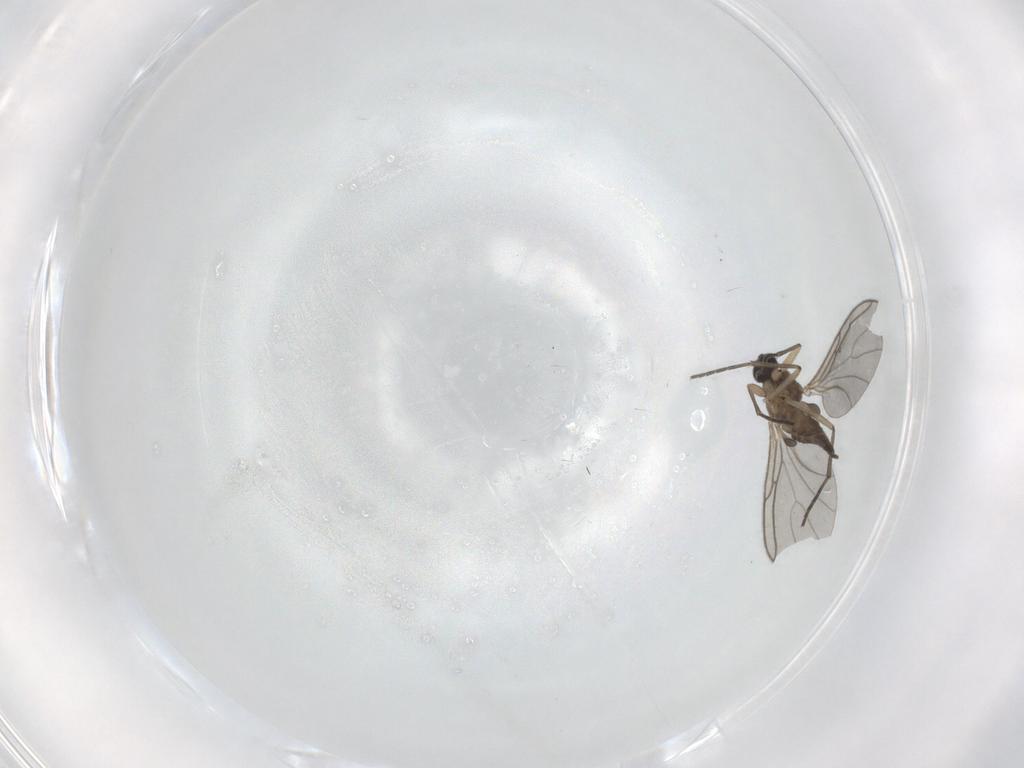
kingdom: Animalia
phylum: Arthropoda
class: Insecta
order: Diptera
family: Sciaridae
